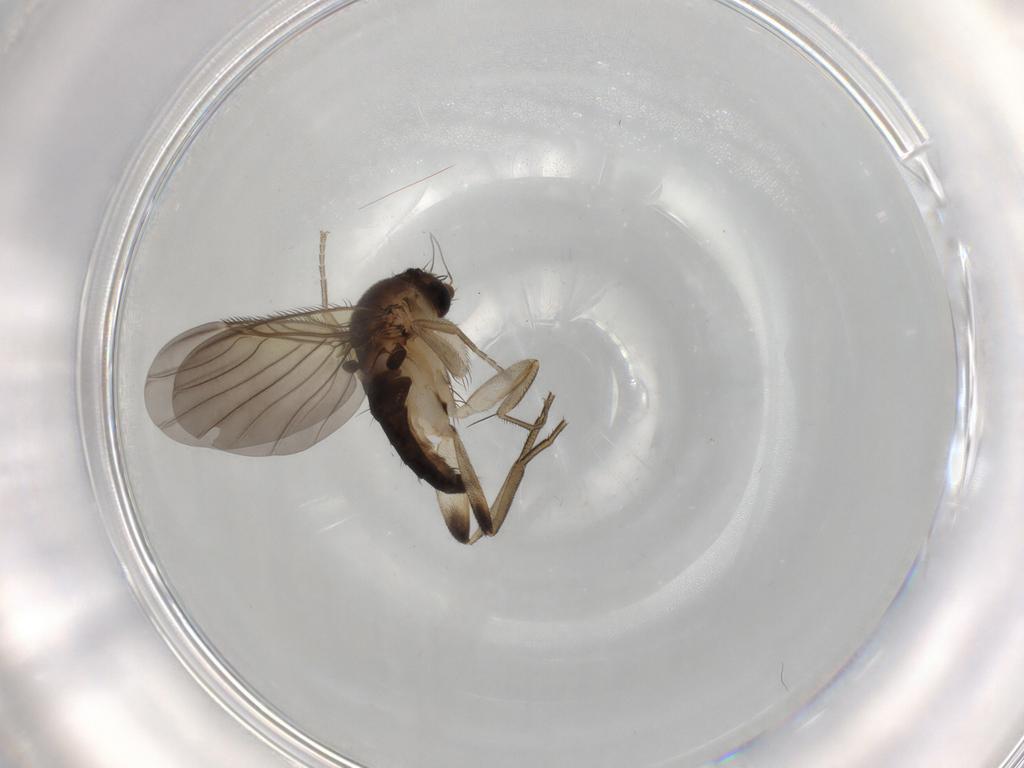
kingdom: Animalia
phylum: Arthropoda
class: Insecta
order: Diptera
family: Phoridae
